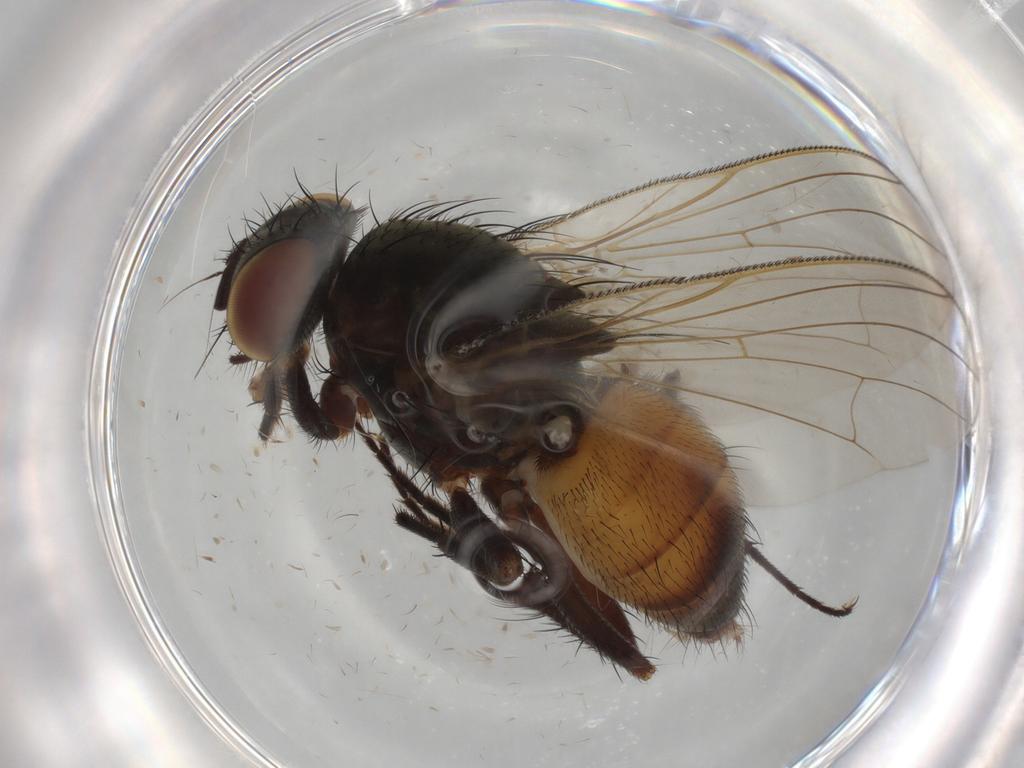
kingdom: Animalia
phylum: Arthropoda
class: Insecta
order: Diptera
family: Fannia
